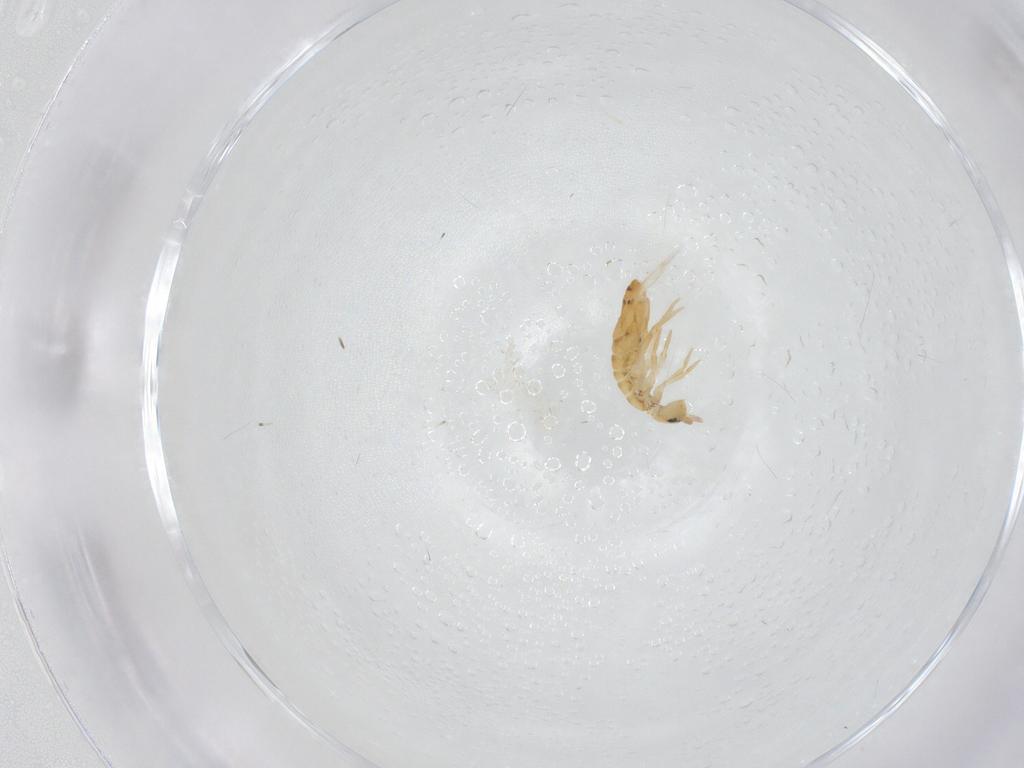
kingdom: Animalia
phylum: Arthropoda
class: Collembola
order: Entomobryomorpha
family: Entomobryidae
